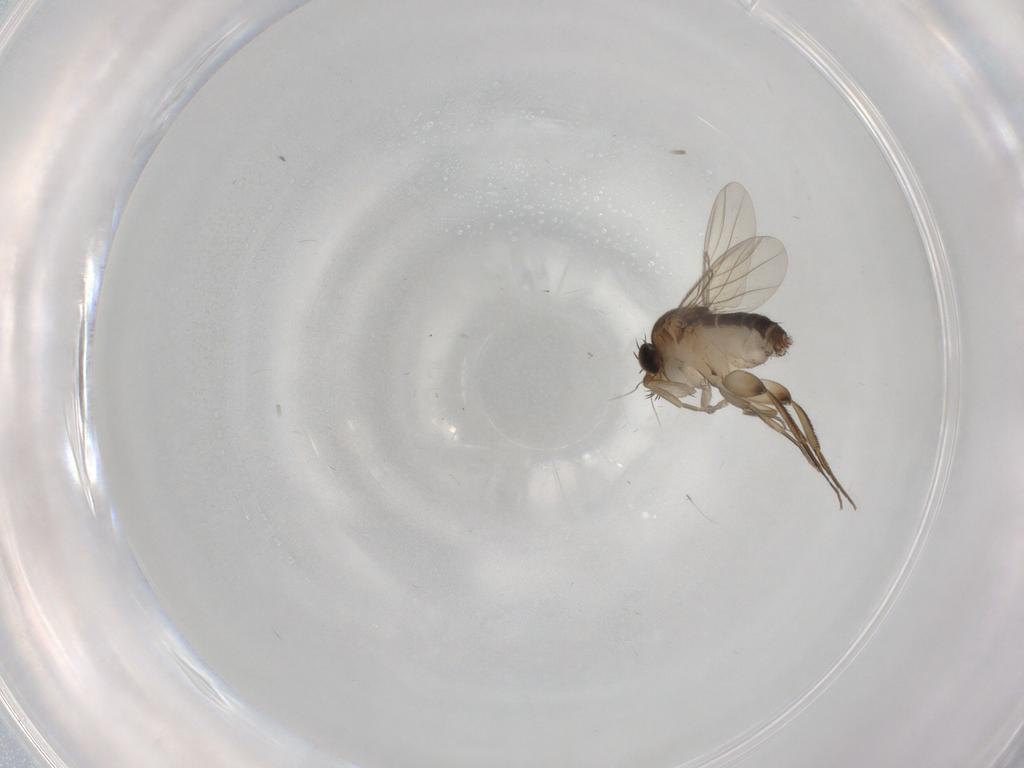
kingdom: Animalia
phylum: Arthropoda
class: Insecta
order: Diptera
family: Phoridae
